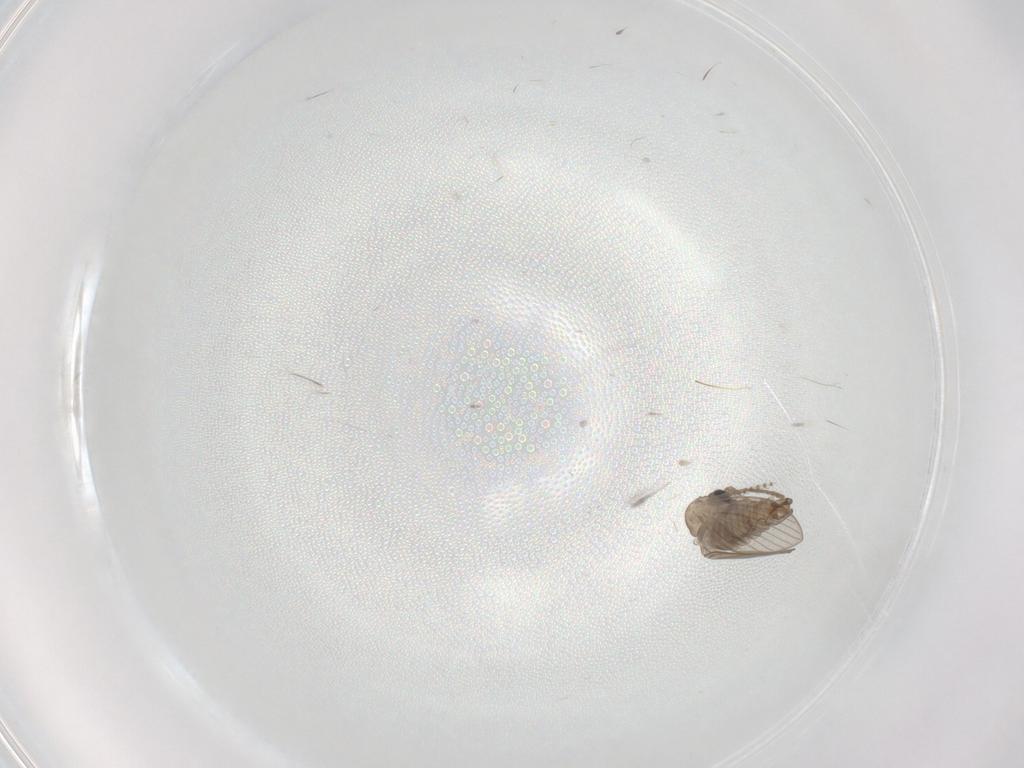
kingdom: Animalia
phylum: Arthropoda
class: Insecta
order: Diptera
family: Psychodidae
